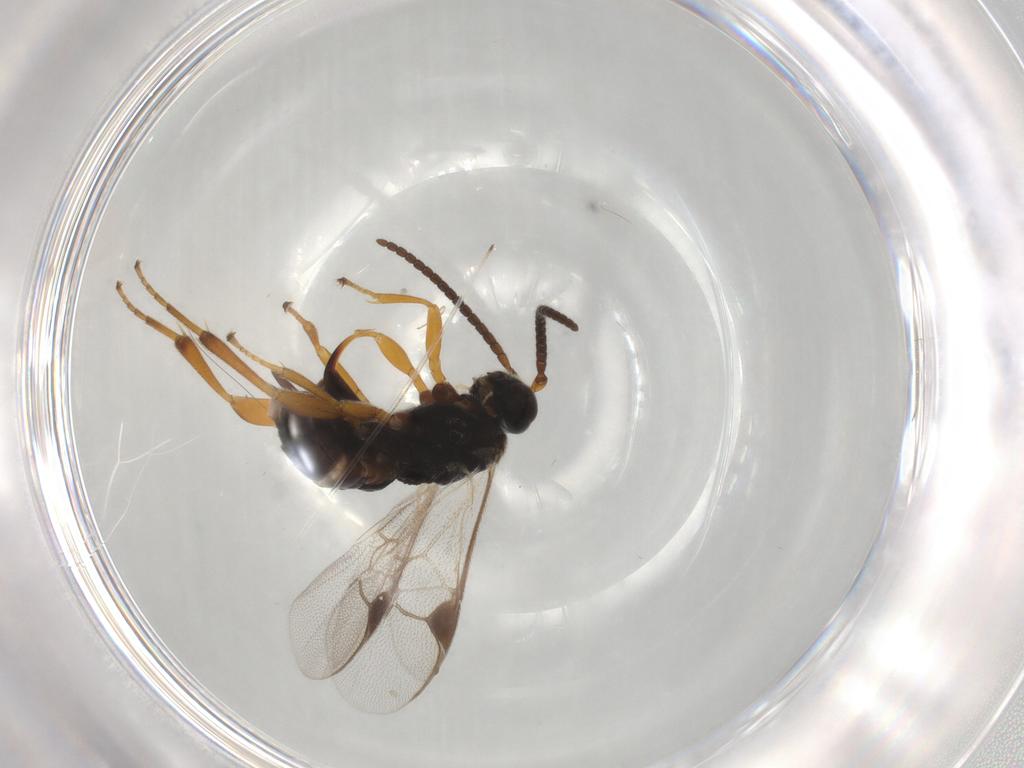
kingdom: Animalia
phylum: Arthropoda
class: Insecta
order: Hymenoptera
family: Braconidae
